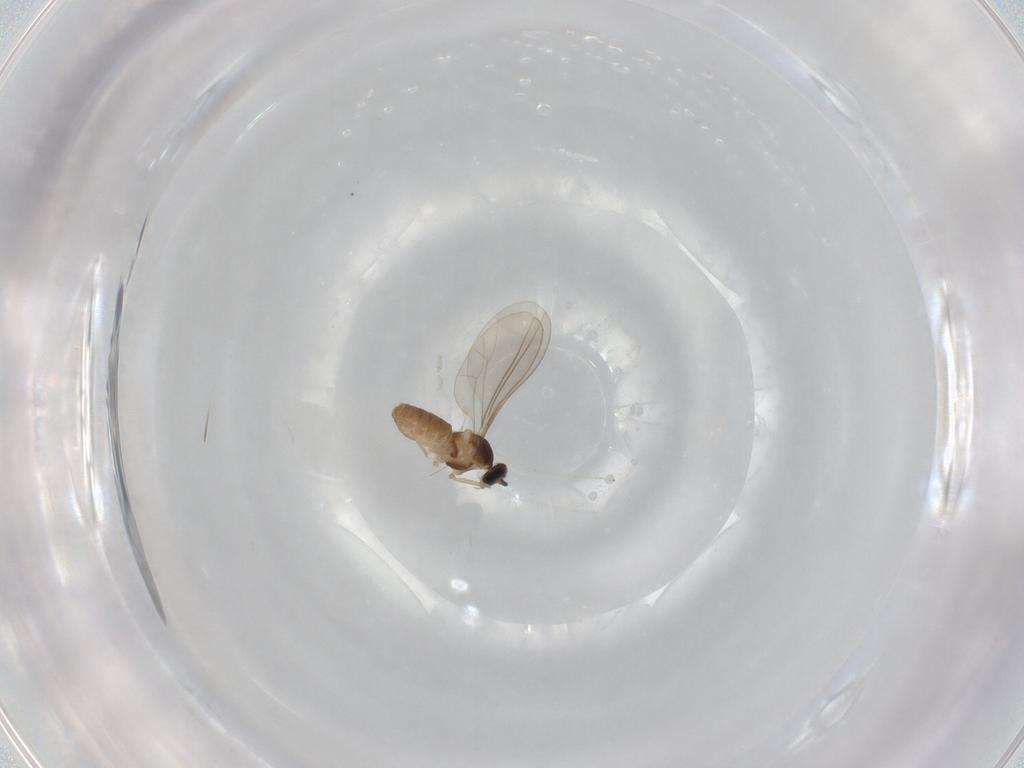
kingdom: Animalia
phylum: Arthropoda
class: Insecta
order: Diptera
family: Cecidomyiidae
